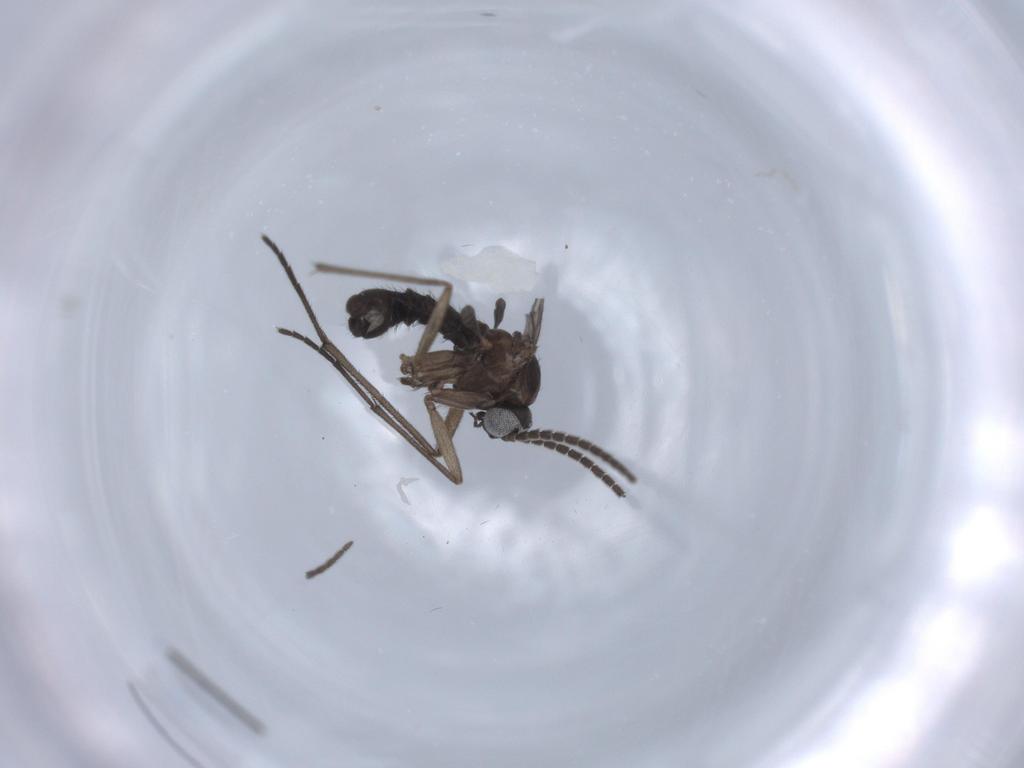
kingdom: Animalia
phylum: Arthropoda
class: Insecta
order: Diptera
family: Sciaridae
